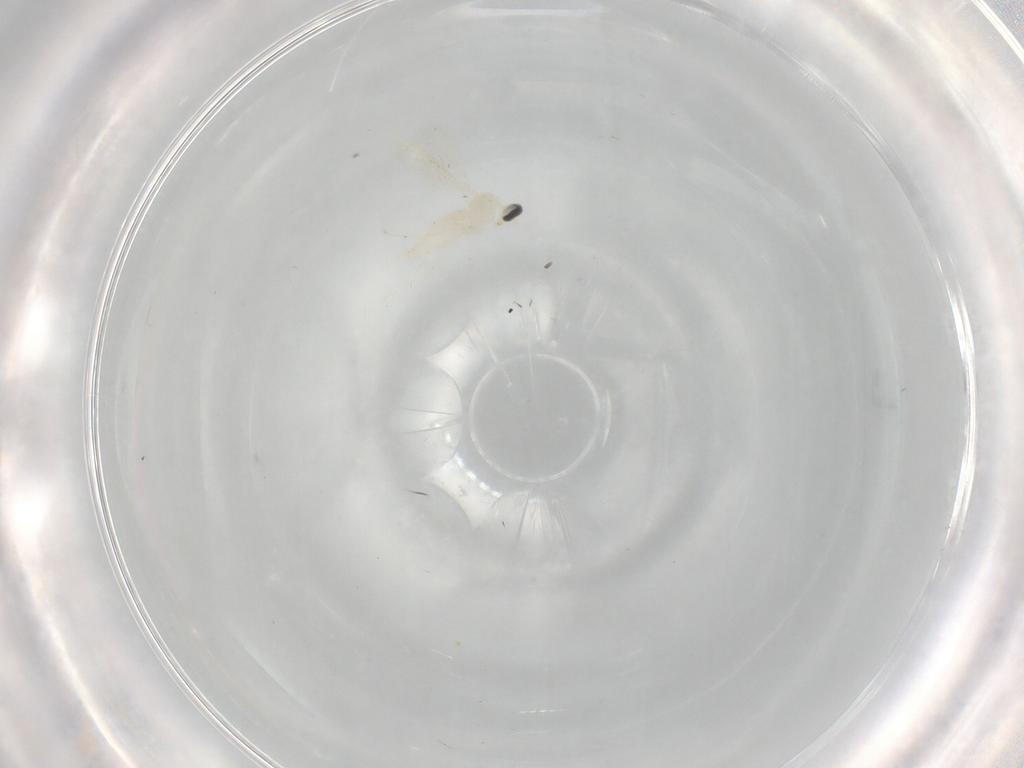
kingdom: Animalia
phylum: Arthropoda
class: Insecta
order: Diptera
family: Cecidomyiidae
